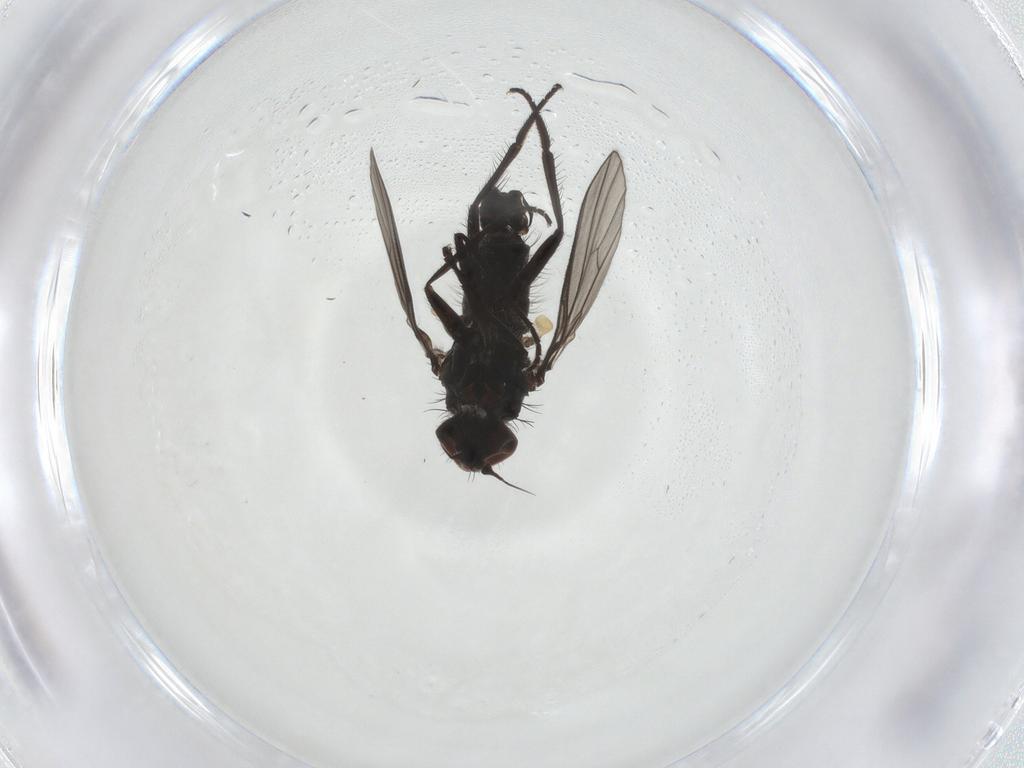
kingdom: Animalia
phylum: Arthropoda
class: Insecta
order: Diptera
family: Dolichopodidae
